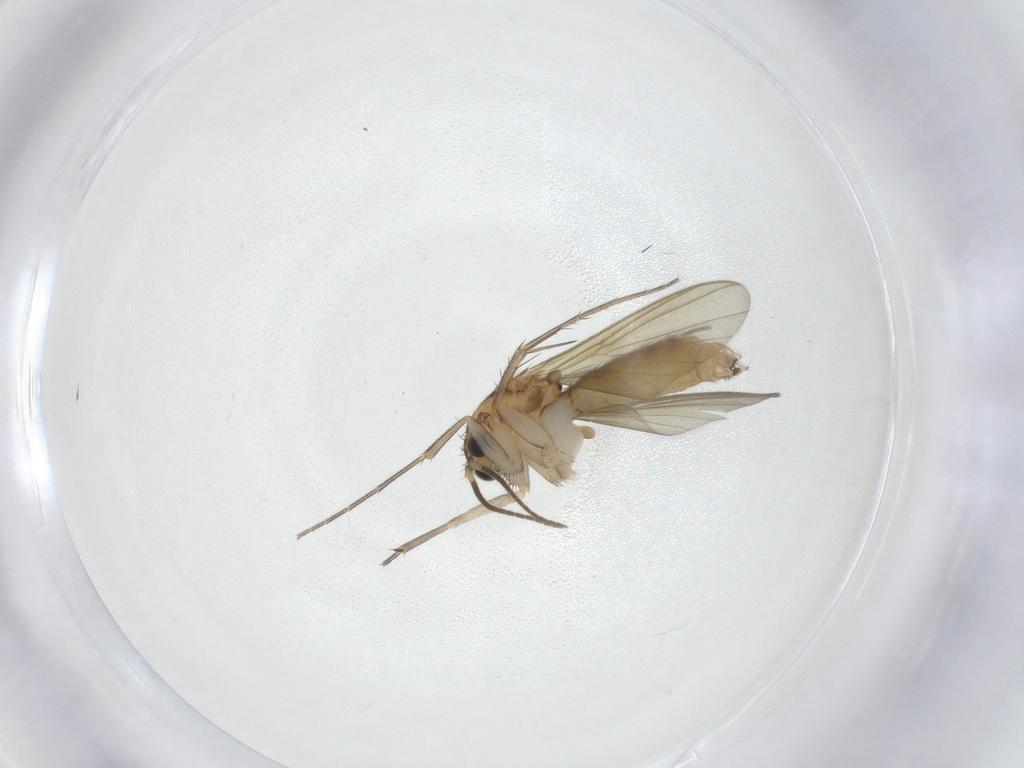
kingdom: Animalia
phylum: Arthropoda
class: Insecta
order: Diptera
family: Mycetophilidae
